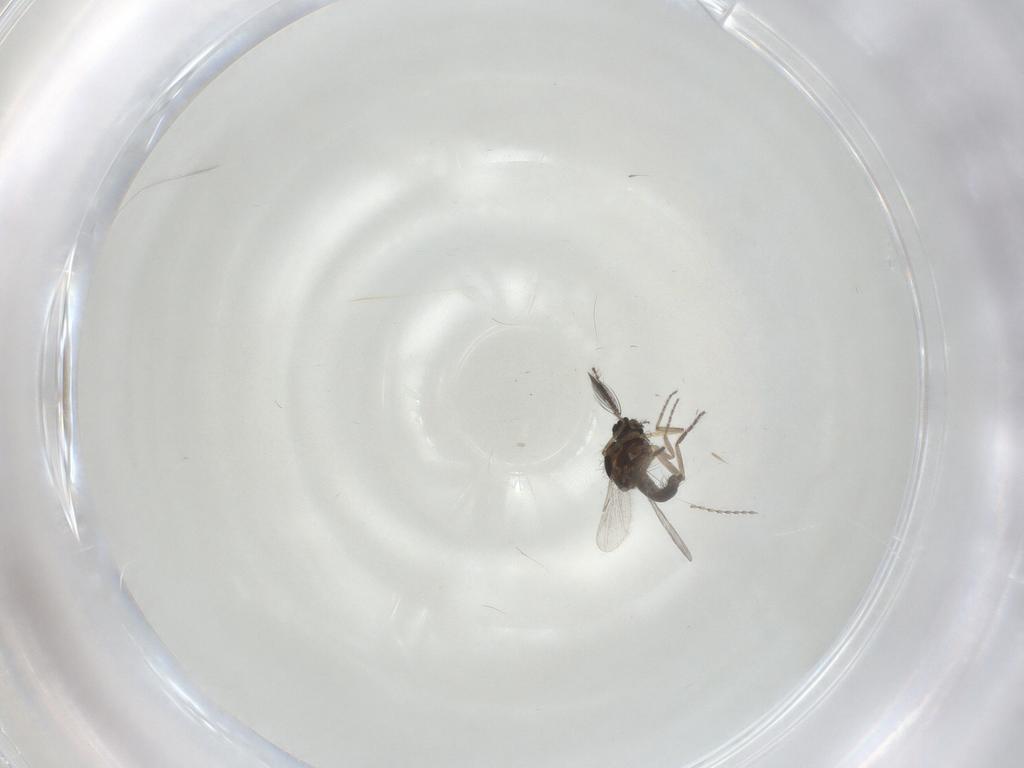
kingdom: Animalia
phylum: Arthropoda
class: Insecta
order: Diptera
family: Ceratopogonidae
